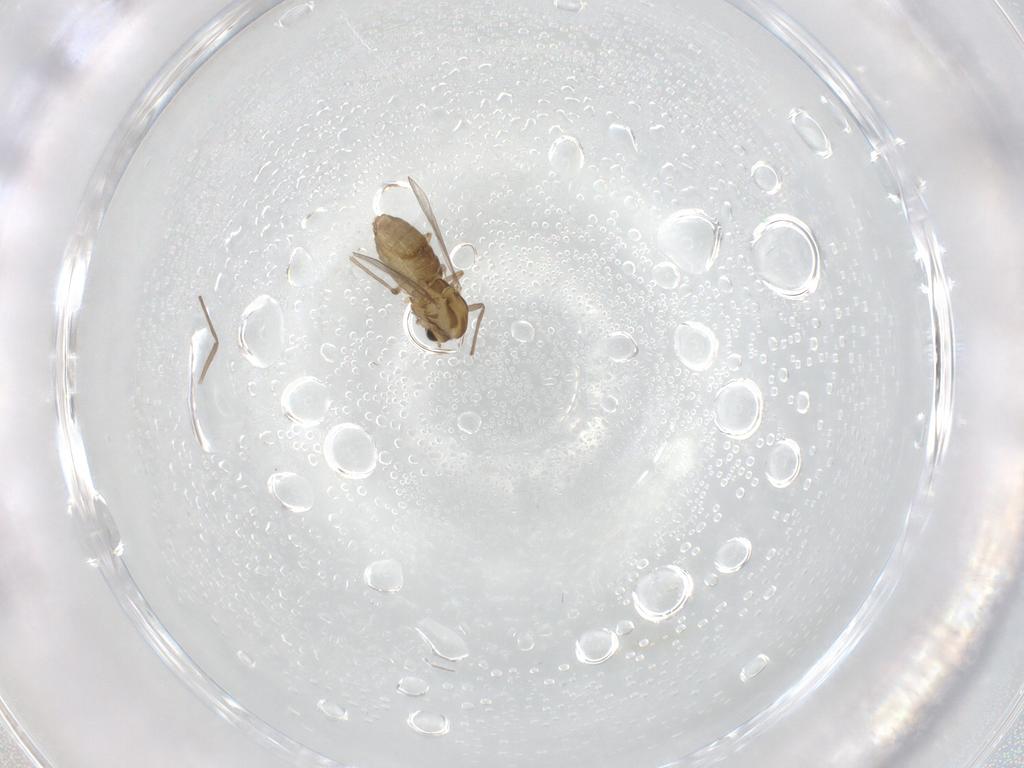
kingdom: Animalia
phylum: Arthropoda
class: Insecta
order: Diptera
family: Chironomidae
